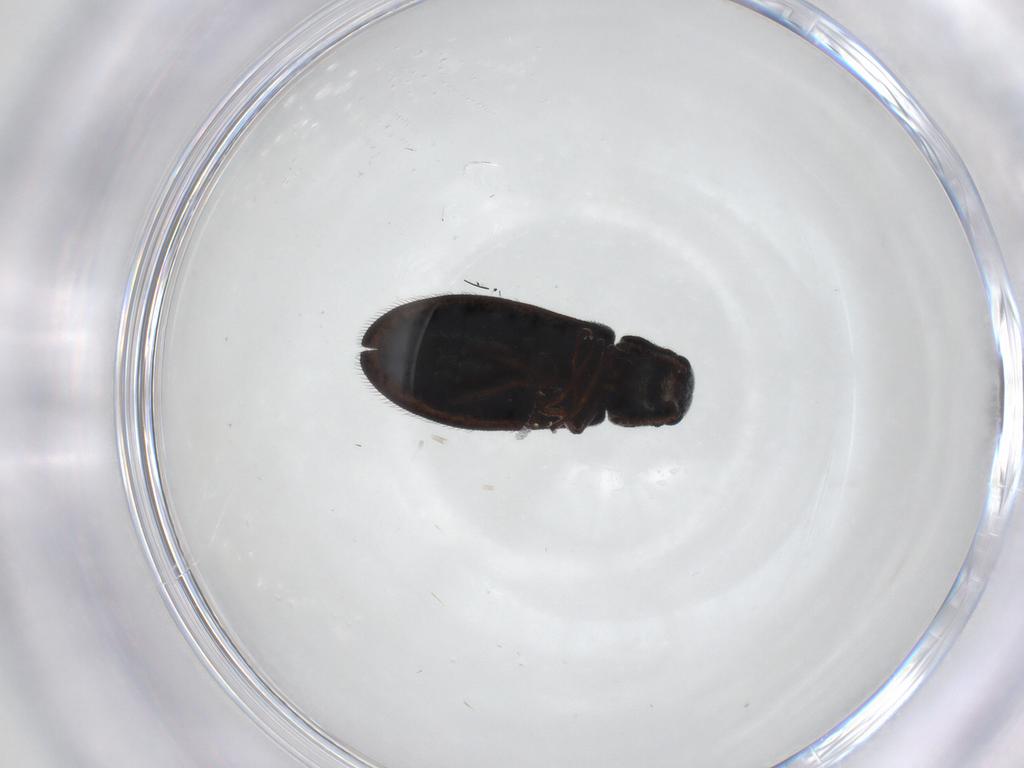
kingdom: Animalia
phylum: Arthropoda
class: Insecta
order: Coleoptera
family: Melyridae
